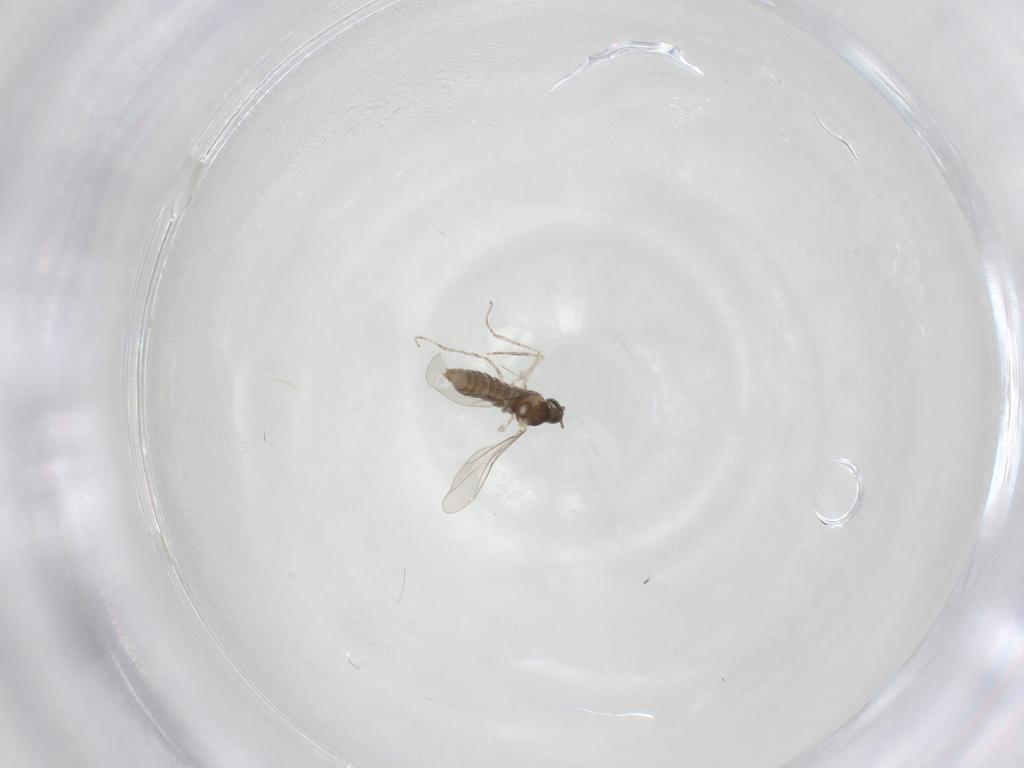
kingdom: Animalia
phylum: Arthropoda
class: Insecta
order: Diptera
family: Cecidomyiidae
